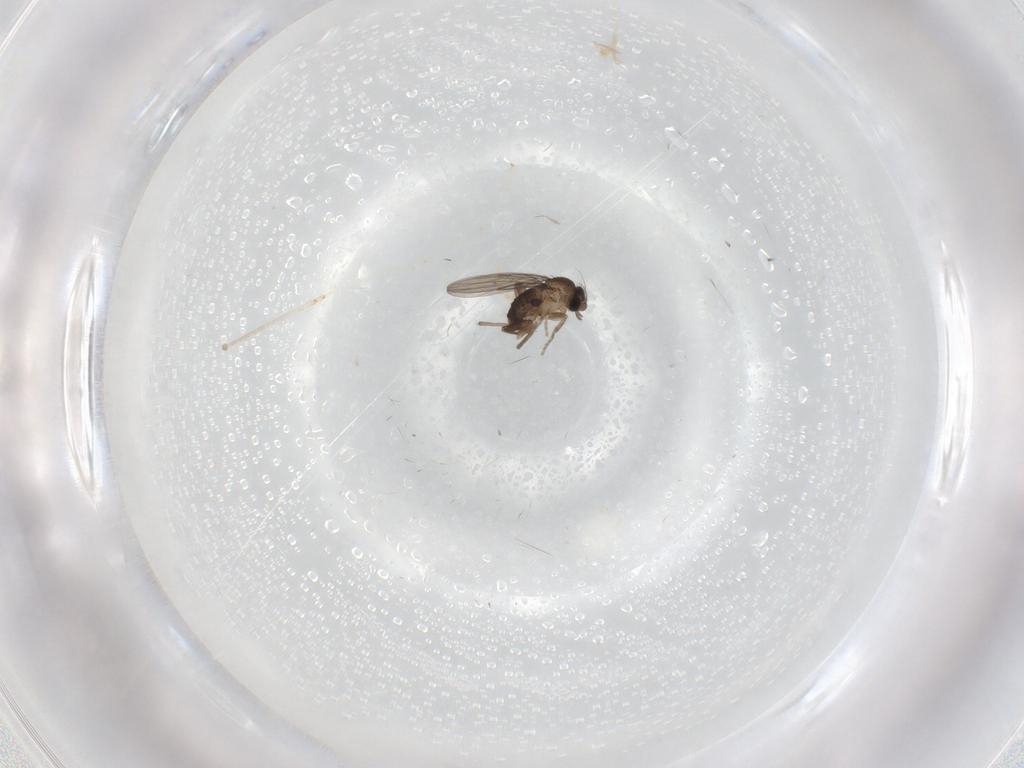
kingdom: Animalia
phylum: Arthropoda
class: Insecta
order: Diptera
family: Cecidomyiidae
